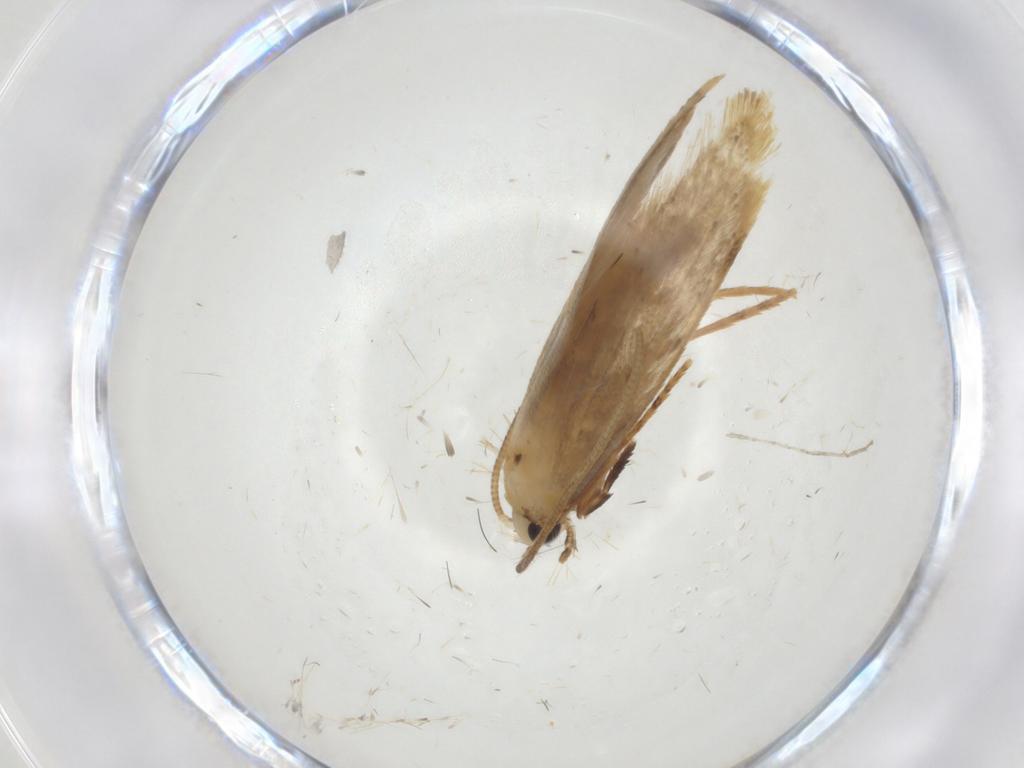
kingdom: Animalia
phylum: Arthropoda
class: Insecta
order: Lepidoptera
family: Tineidae
